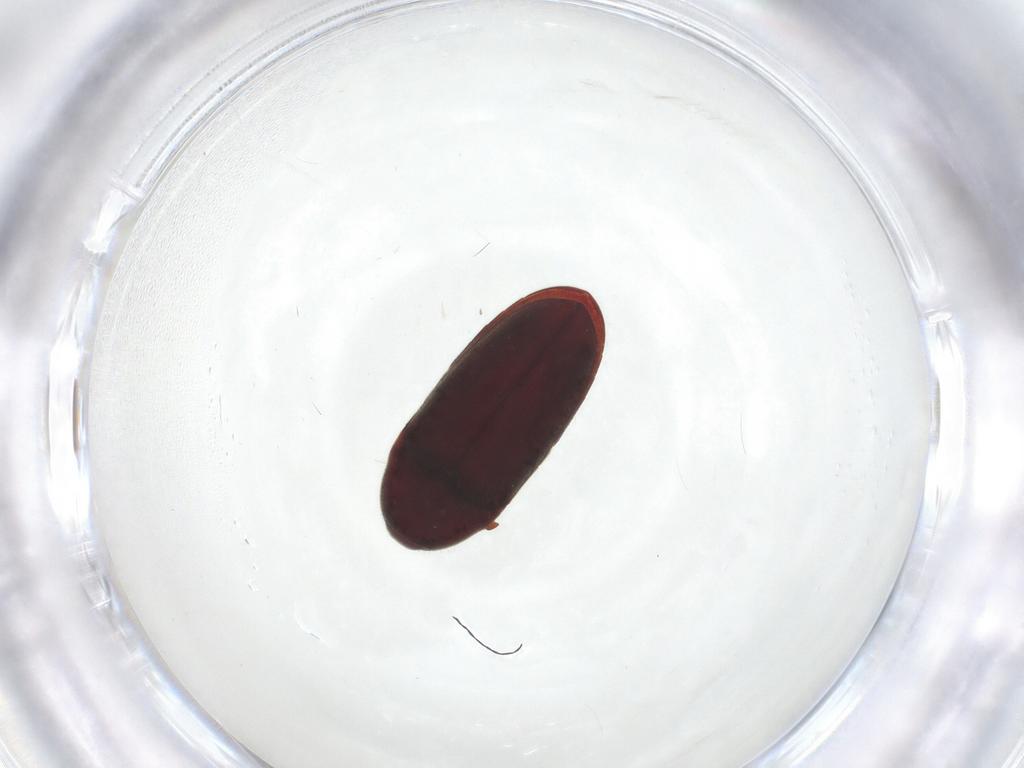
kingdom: Animalia
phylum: Arthropoda
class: Insecta
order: Coleoptera
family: Throscidae
